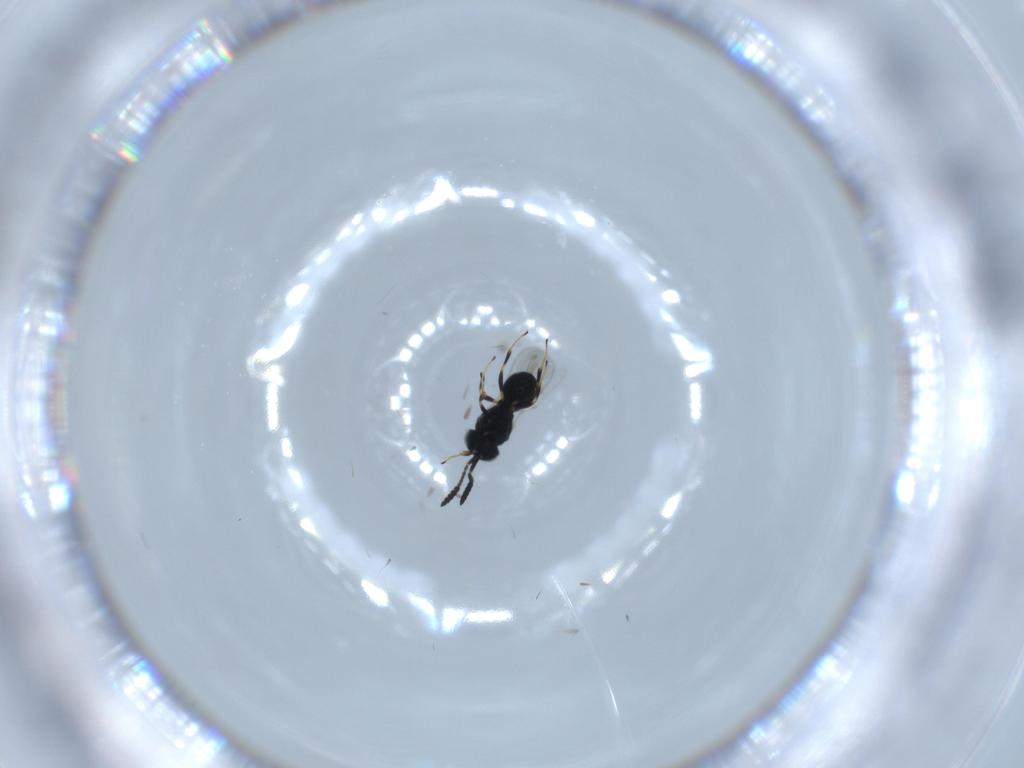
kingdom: Animalia
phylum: Arthropoda
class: Insecta
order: Hymenoptera
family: Scelionidae
